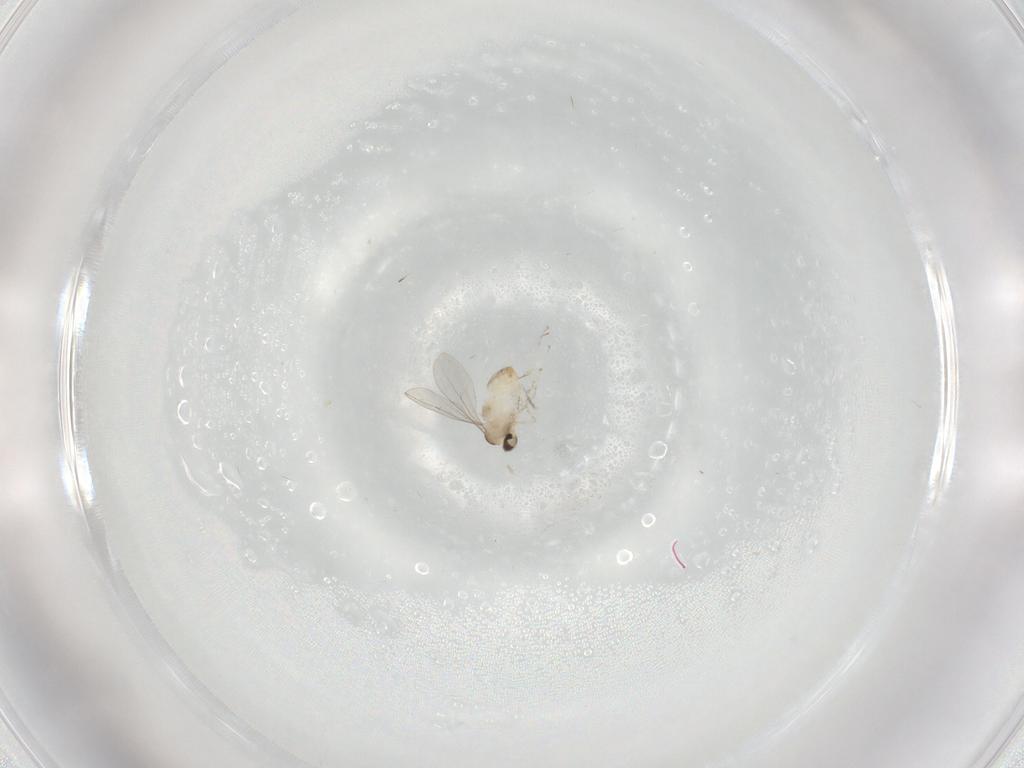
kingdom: Animalia
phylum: Arthropoda
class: Insecta
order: Diptera
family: Cecidomyiidae
